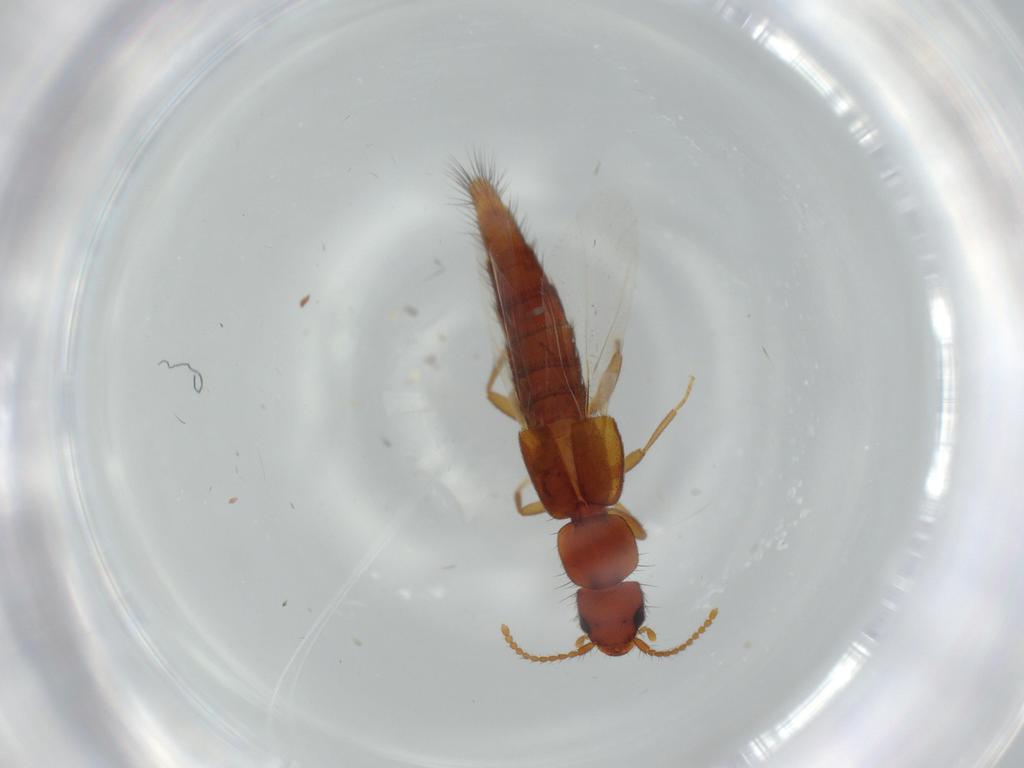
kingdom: Animalia
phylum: Arthropoda
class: Insecta
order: Coleoptera
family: Staphylinidae
